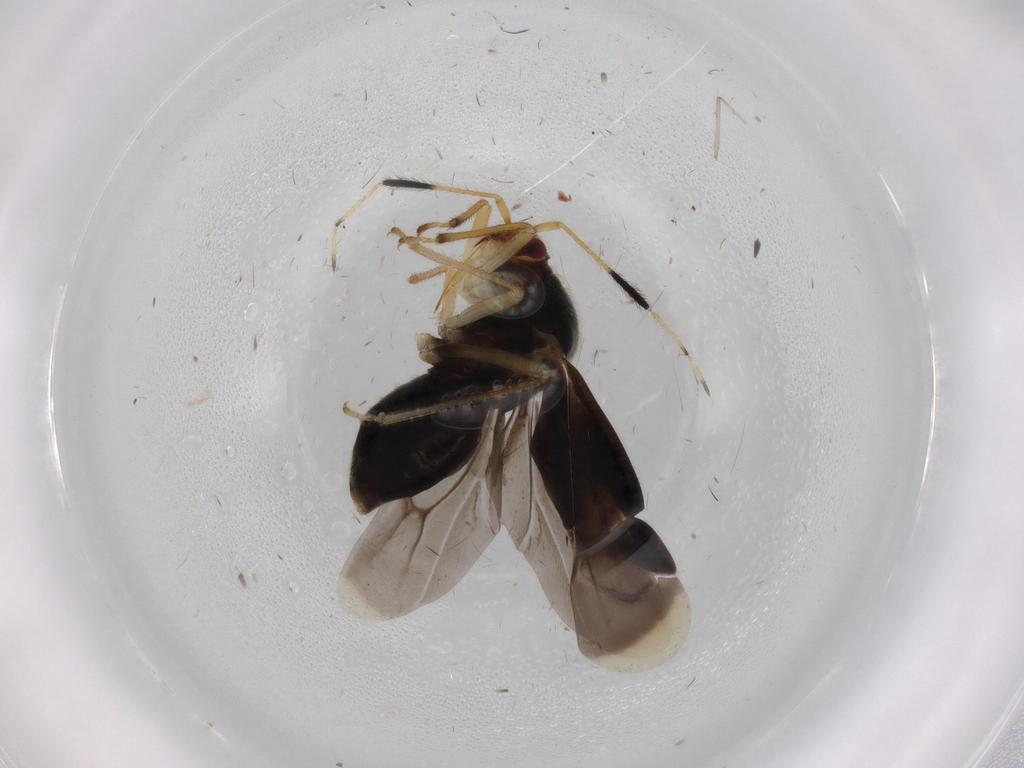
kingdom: Animalia
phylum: Arthropoda
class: Insecta
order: Hemiptera
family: Miridae
